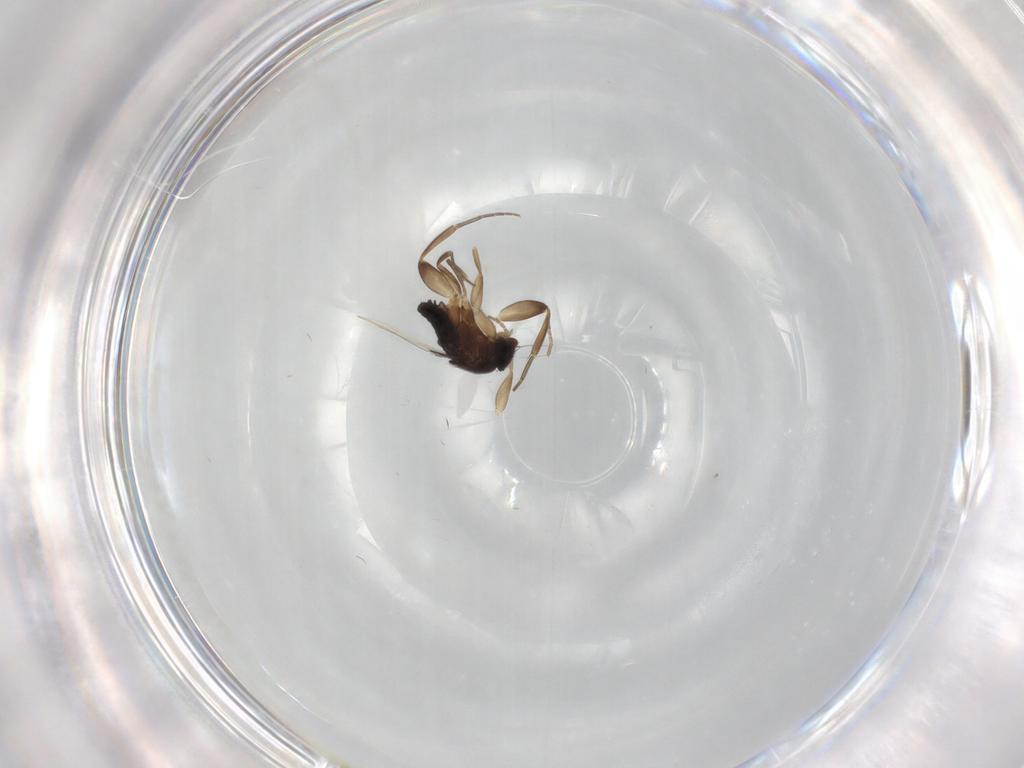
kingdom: Animalia
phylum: Arthropoda
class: Insecta
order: Diptera
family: Phoridae
